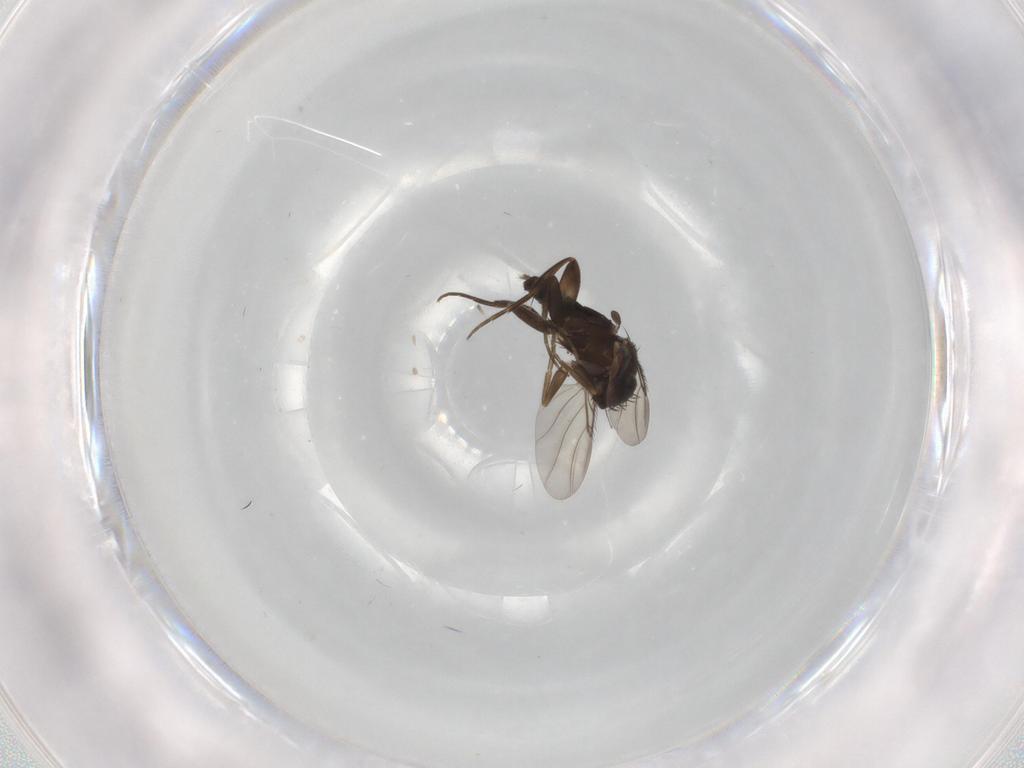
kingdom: Animalia
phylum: Arthropoda
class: Insecta
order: Diptera
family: Phoridae
